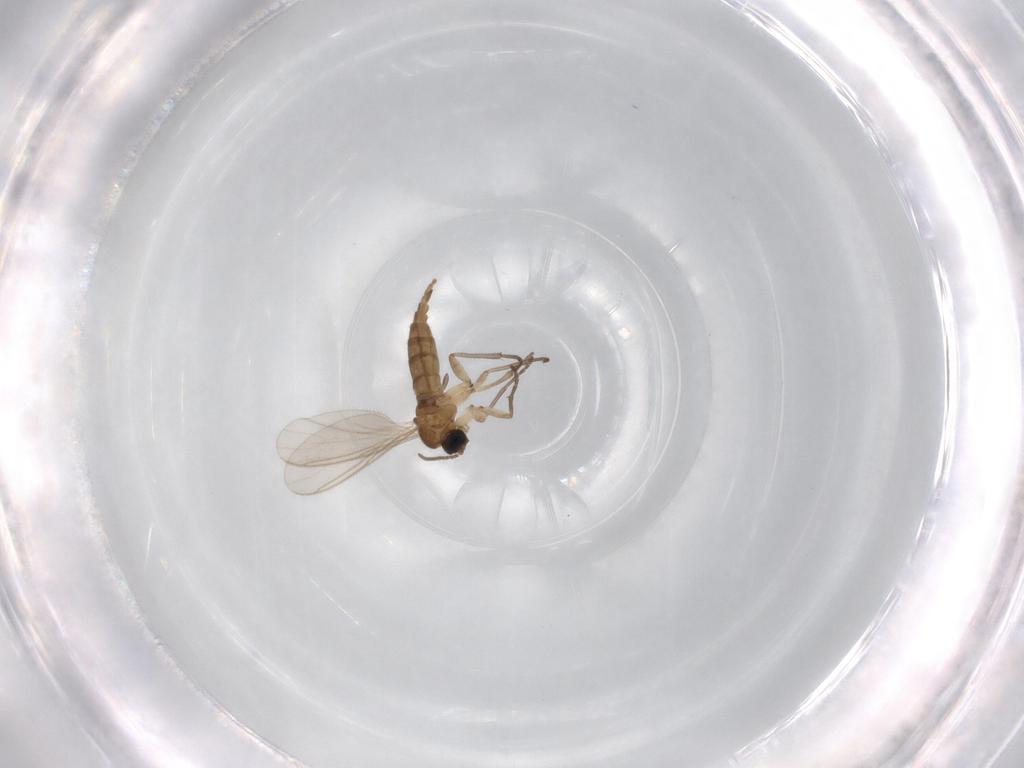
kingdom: Animalia
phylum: Arthropoda
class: Insecta
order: Diptera
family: Sciaridae
